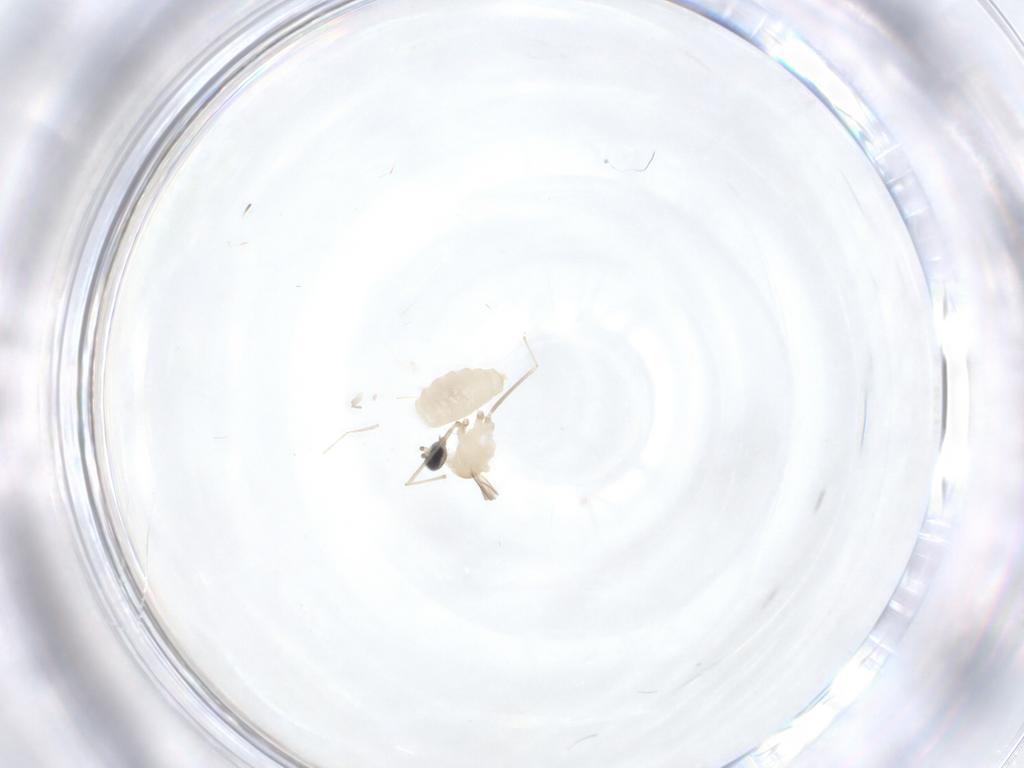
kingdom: Animalia
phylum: Arthropoda
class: Insecta
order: Diptera
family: Cecidomyiidae
